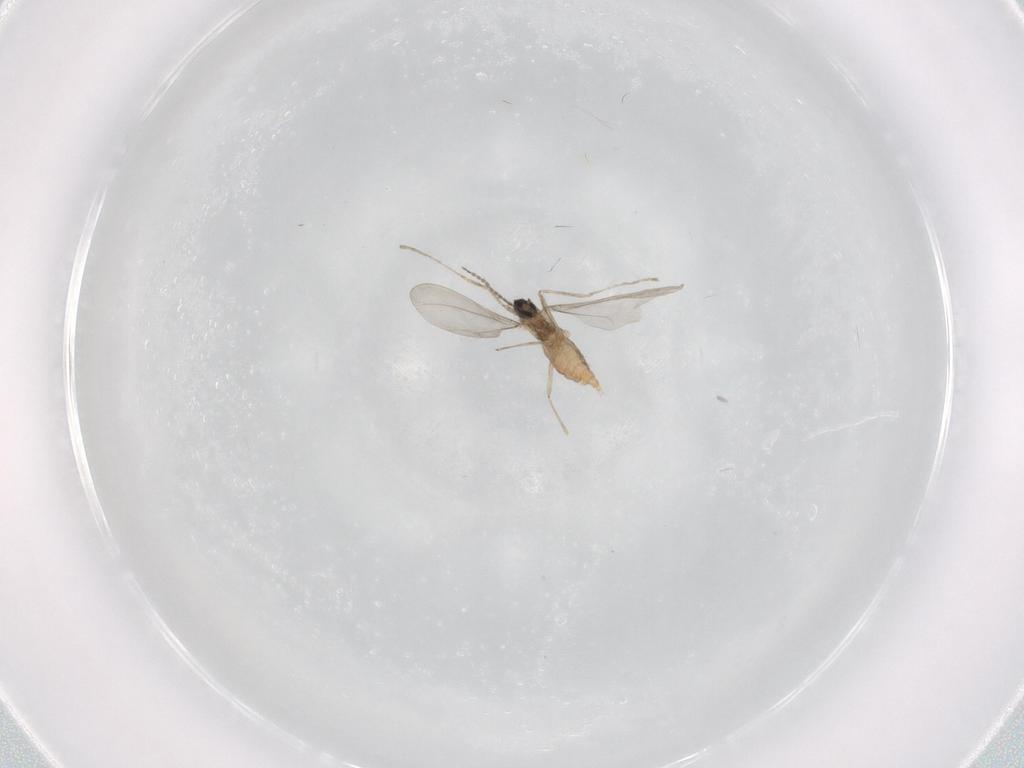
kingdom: Animalia
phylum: Arthropoda
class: Insecta
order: Diptera
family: Cecidomyiidae
